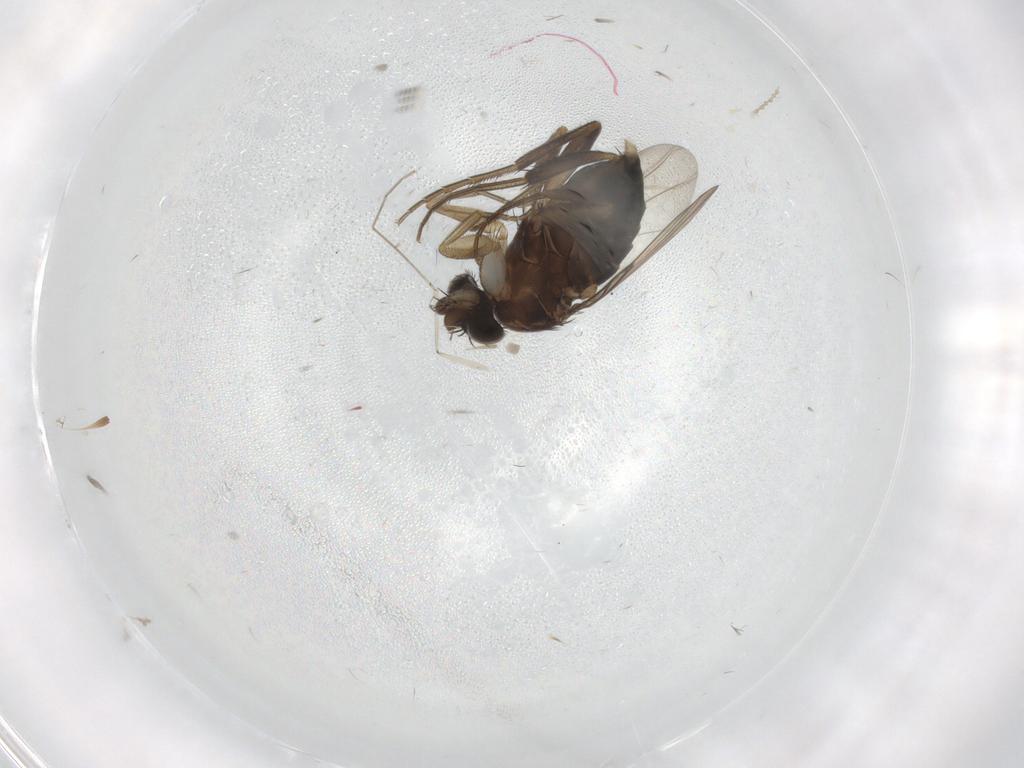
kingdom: Animalia
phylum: Arthropoda
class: Insecta
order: Diptera
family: Phoridae
